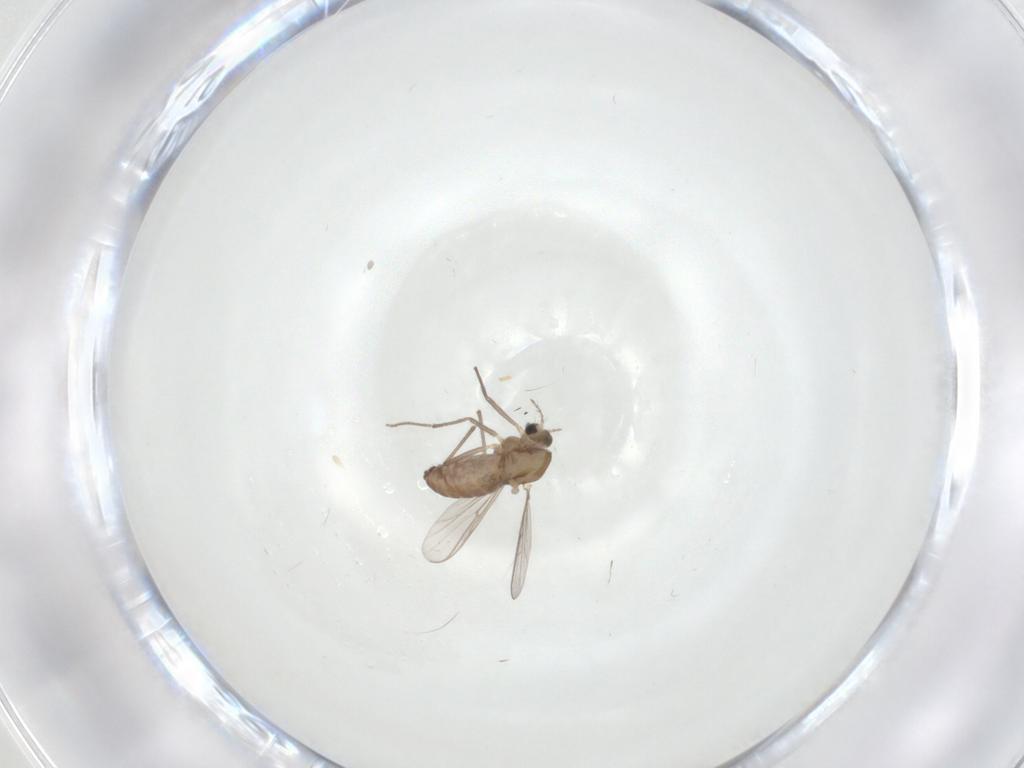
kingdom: Animalia
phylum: Arthropoda
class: Insecta
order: Diptera
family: Chironomidae
